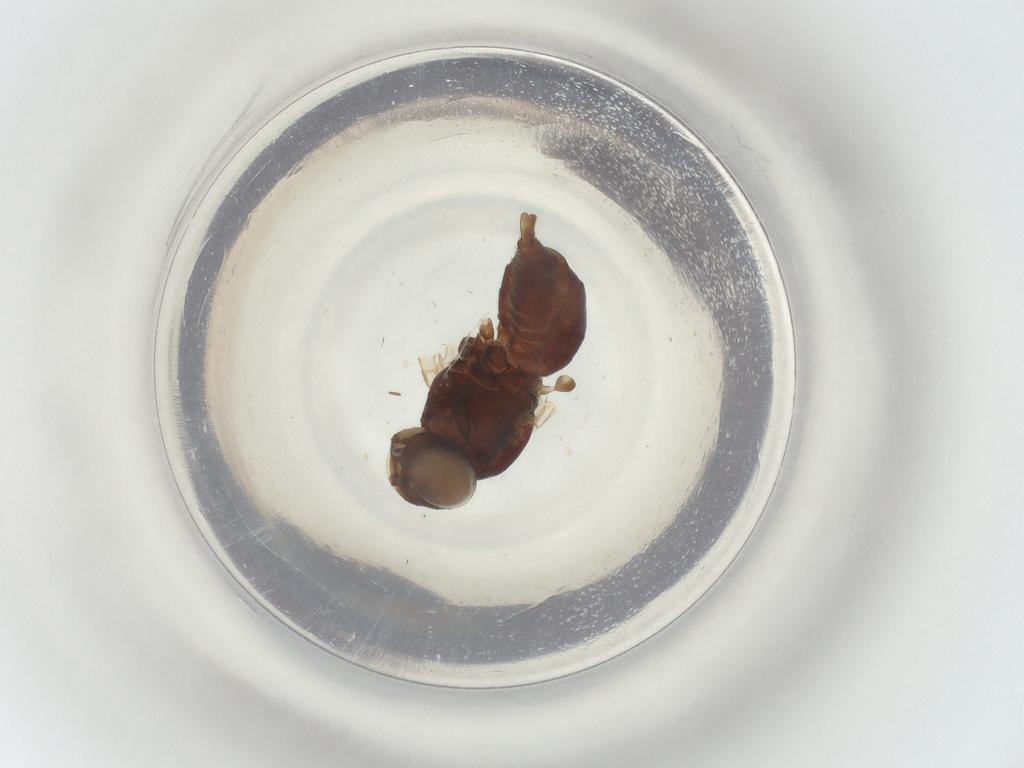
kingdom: Animalia
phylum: Arthropoda
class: Insecta
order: Diptera
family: Agromyzidae
